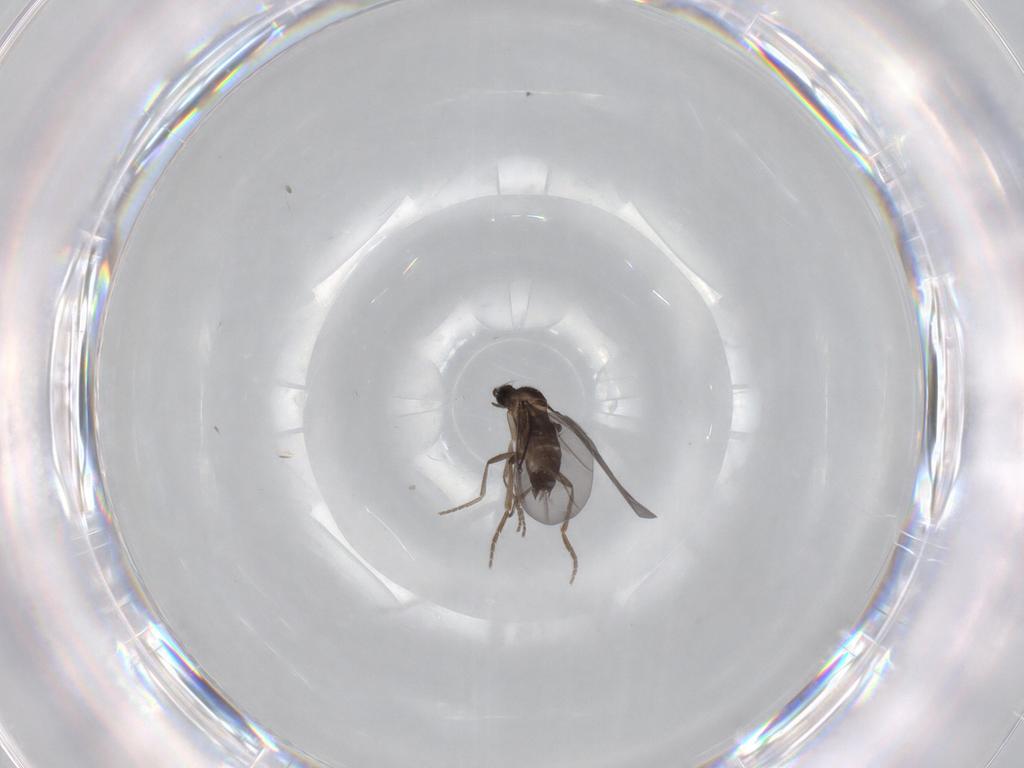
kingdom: Animalia
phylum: Arthropoda
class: Insecta
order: Diptera
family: Phoridae
